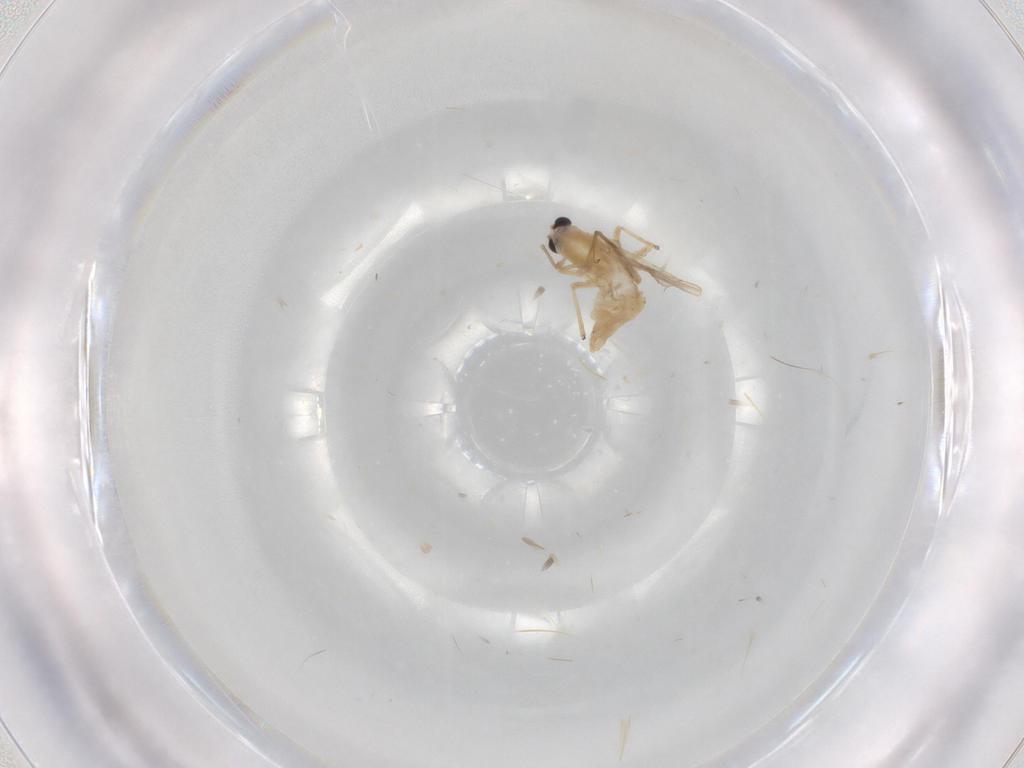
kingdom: Animalia
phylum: Arthropoda
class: Insecta
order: Diptera
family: Chironomidae
